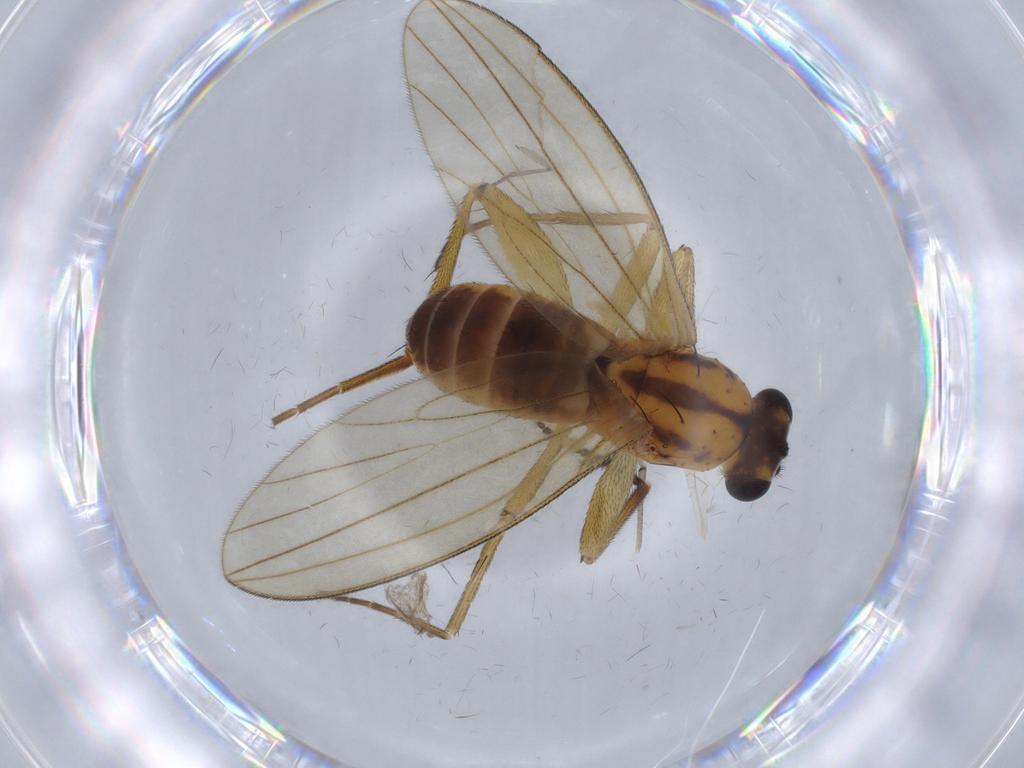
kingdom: Animalia
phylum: Arthropoda
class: Insecta
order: Diptera
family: Lonchopteridae
